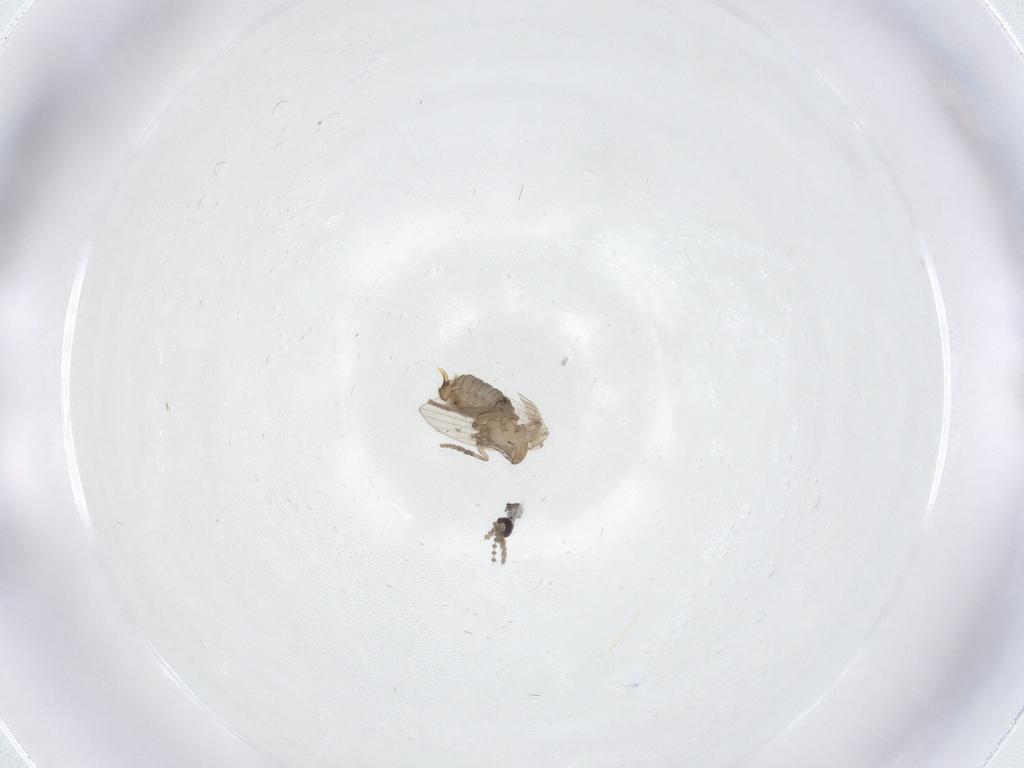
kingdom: Animalia
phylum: Arthropoda
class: Insecta
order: Diptera
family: Psychodidae
